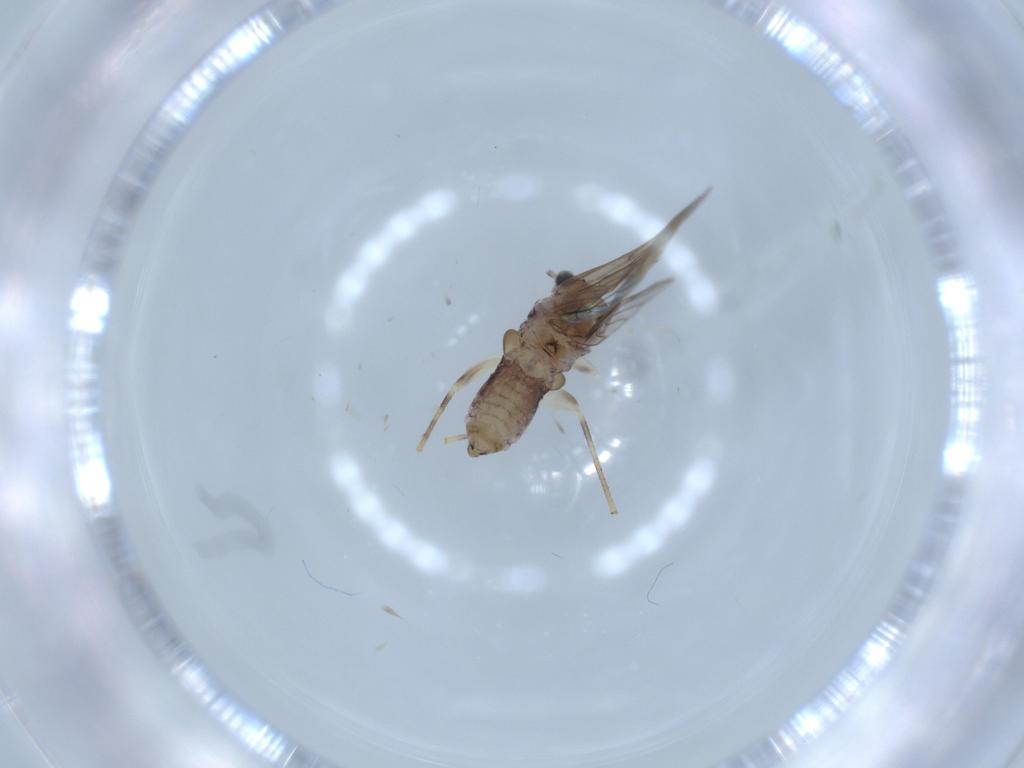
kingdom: Animalia
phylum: Arthropoda
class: Insecta
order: Psocodea
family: Lepidopsocidae
